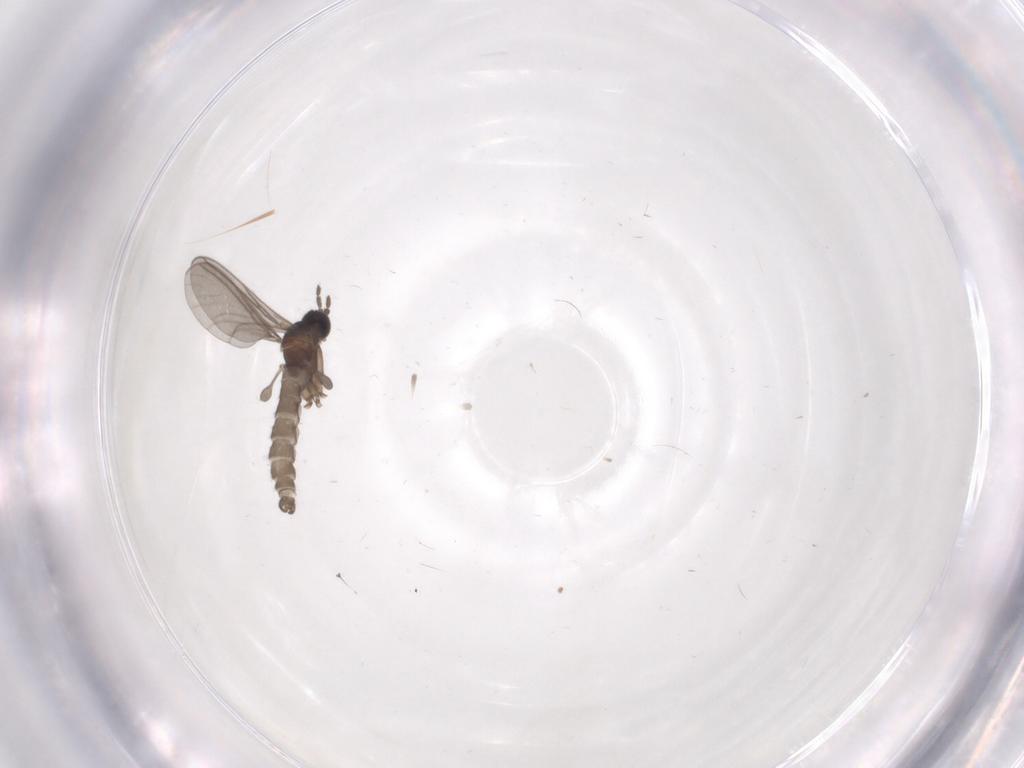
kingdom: Animalia
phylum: Arthropoda
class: Insecta
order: Diptera
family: Sciaridae
